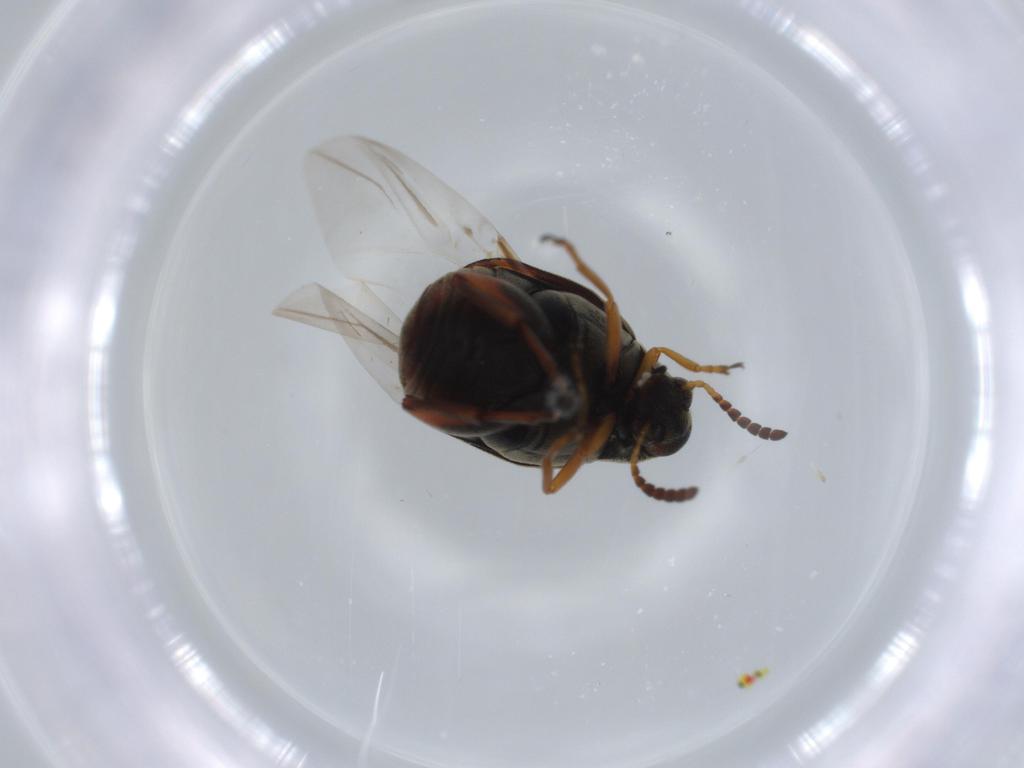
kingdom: Animalia
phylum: Arthropoda
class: Insecta
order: Coleoptera
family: Chrysomelidae
